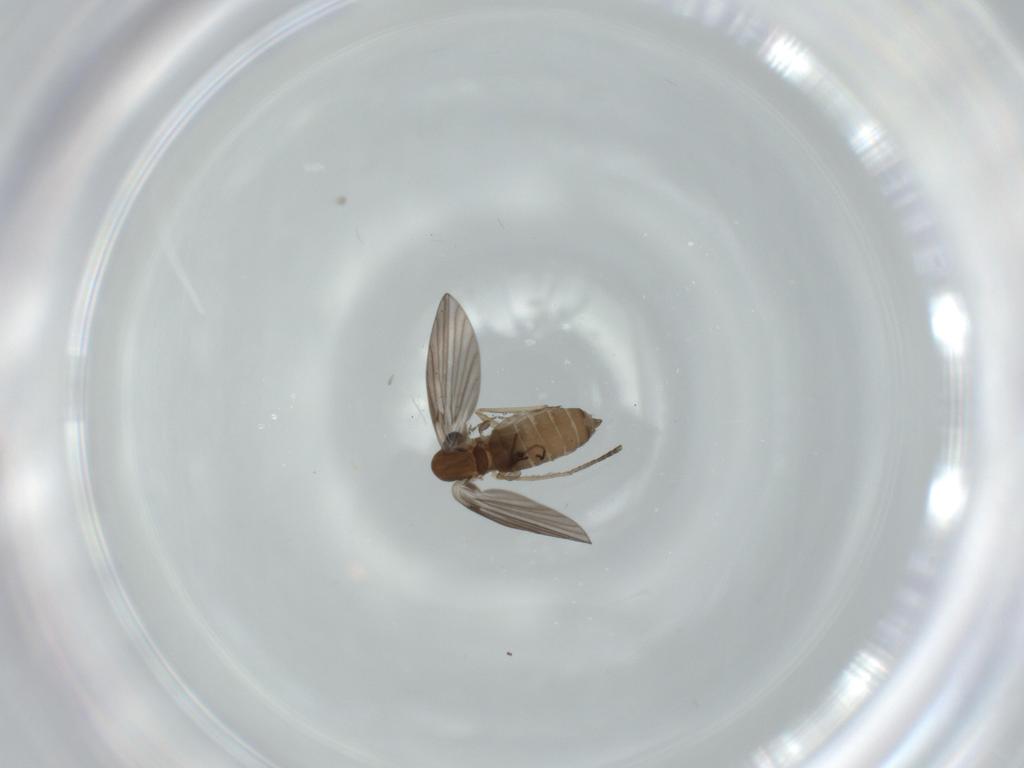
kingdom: Animalia
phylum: Arthropoda
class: Insecta
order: Diptera
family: Psychodidae
